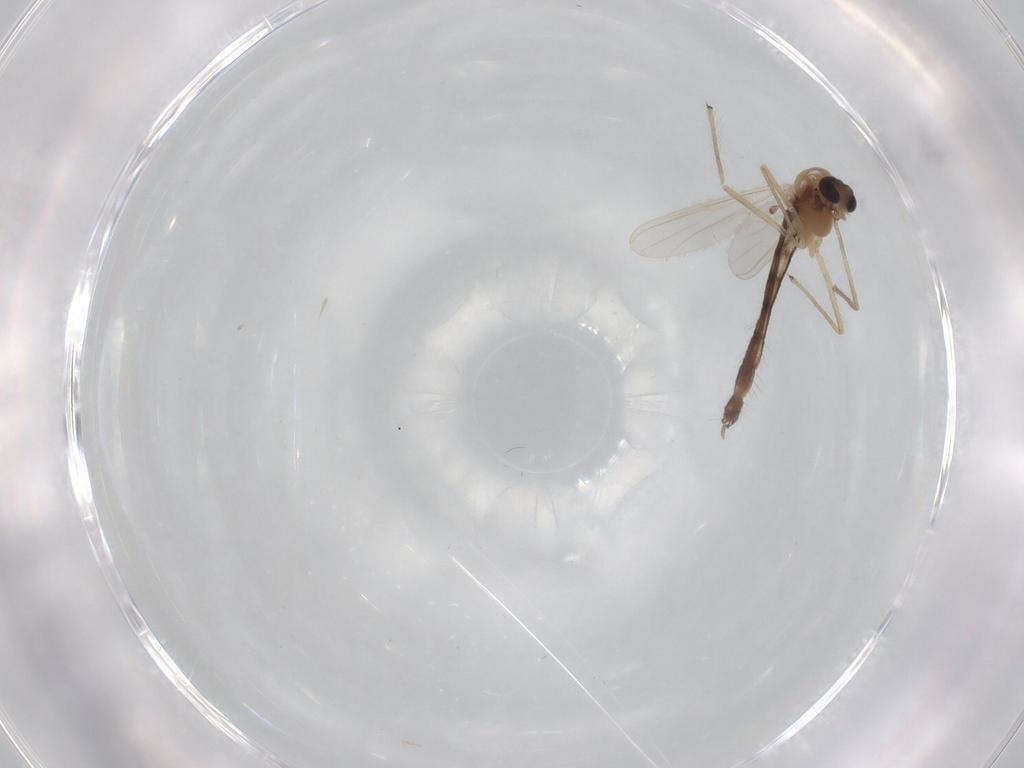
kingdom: Animalia
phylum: Arthropoda
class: Insecta
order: Diptera
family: Chironomidae
